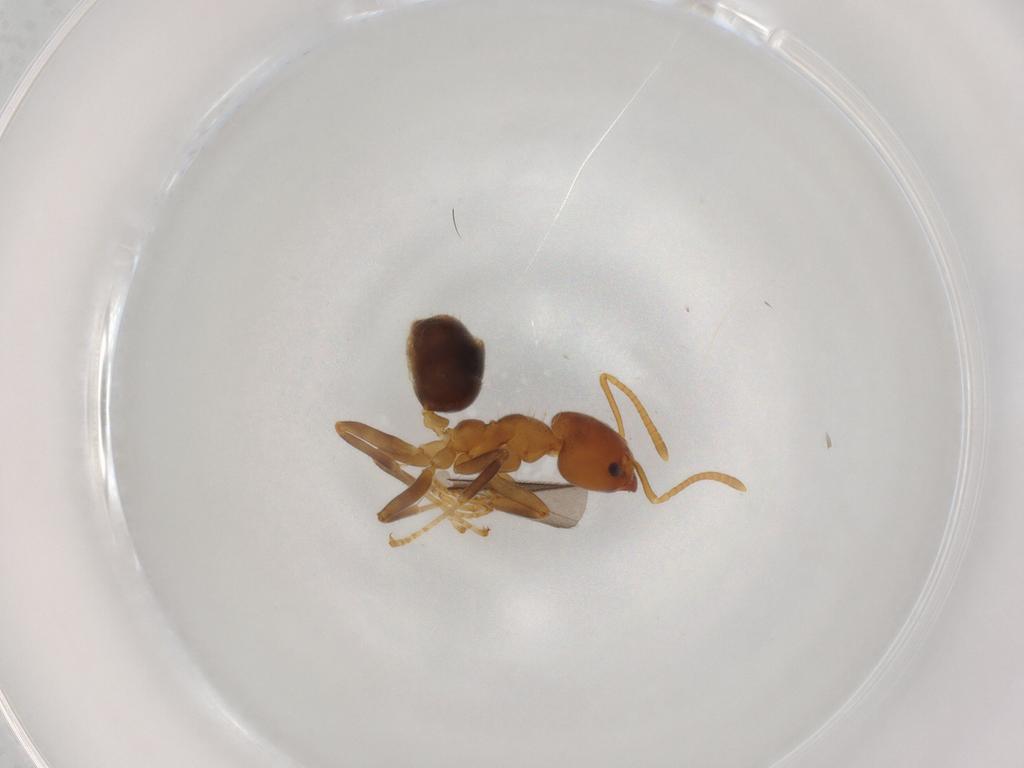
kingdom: Animalia
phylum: Arthropoda
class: Insecta
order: Hymenoptera
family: Formicidae
